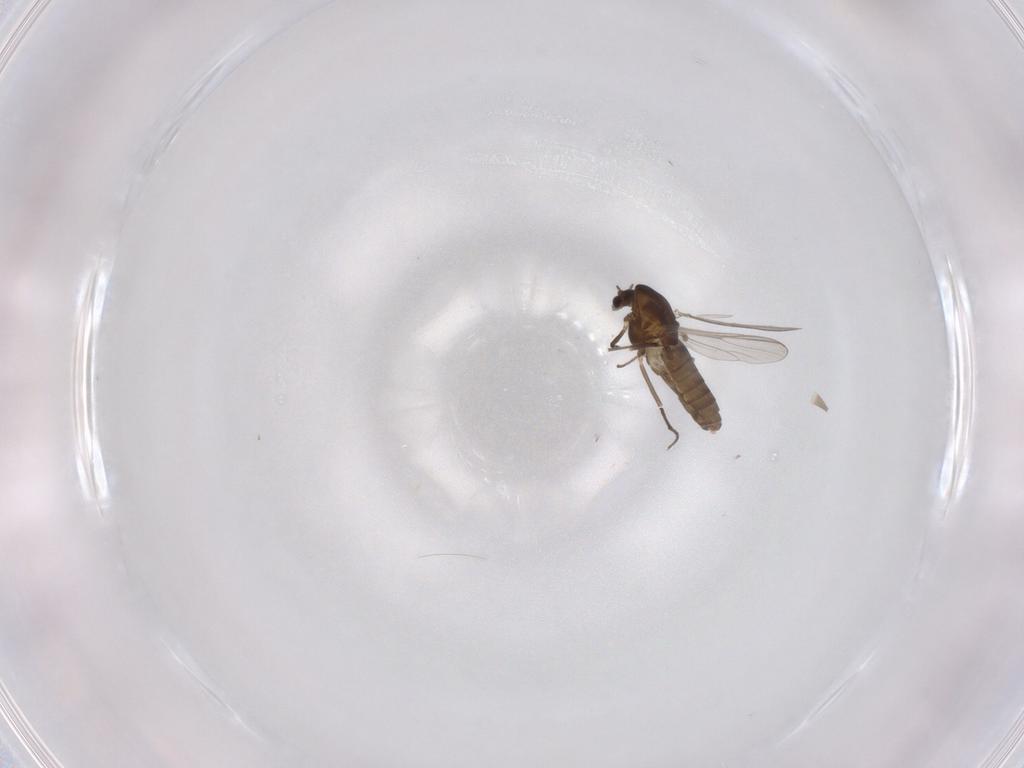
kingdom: Animalia
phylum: Arthropoda
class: Insecta
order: Diptera
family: Chironomidae
